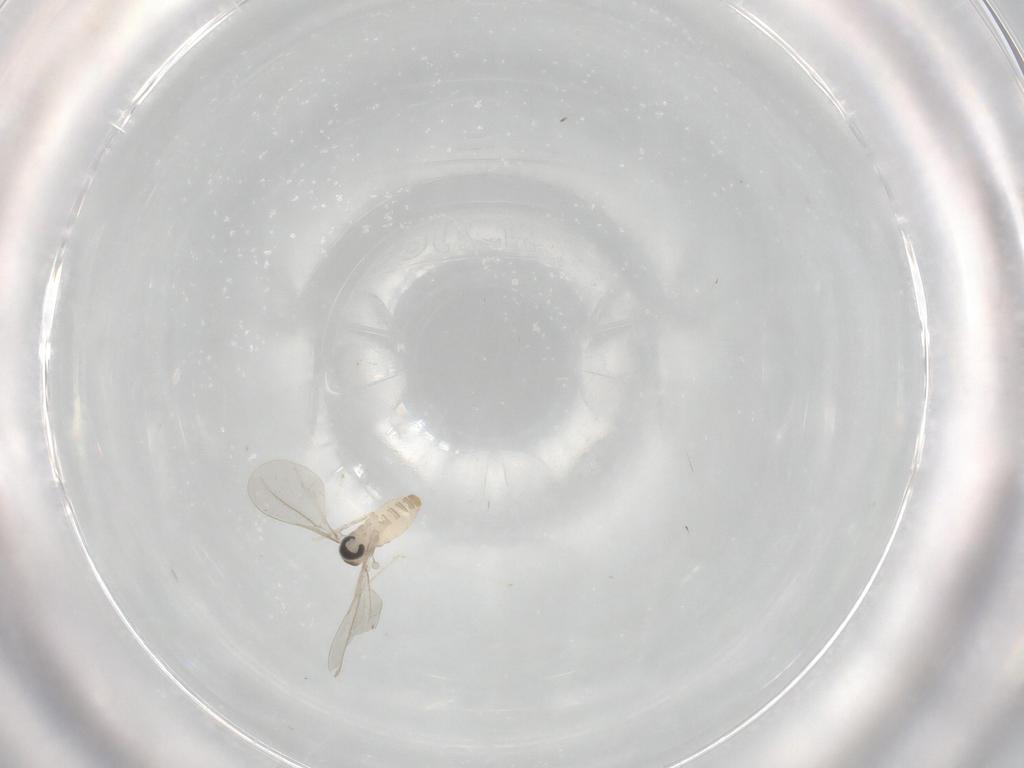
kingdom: Animalia
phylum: Arthropoda
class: Insecta
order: Diptera
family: Cecidomyiidae
